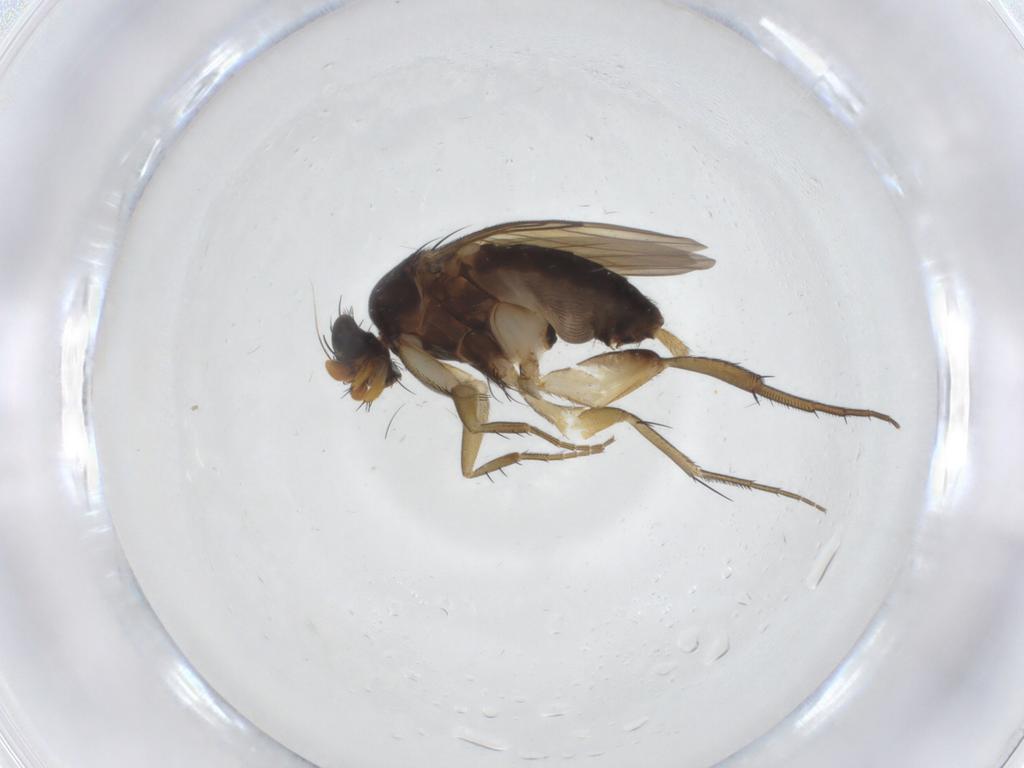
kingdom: Animalia
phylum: Arthropoda
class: Insecta
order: Diptera
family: Phoridae
